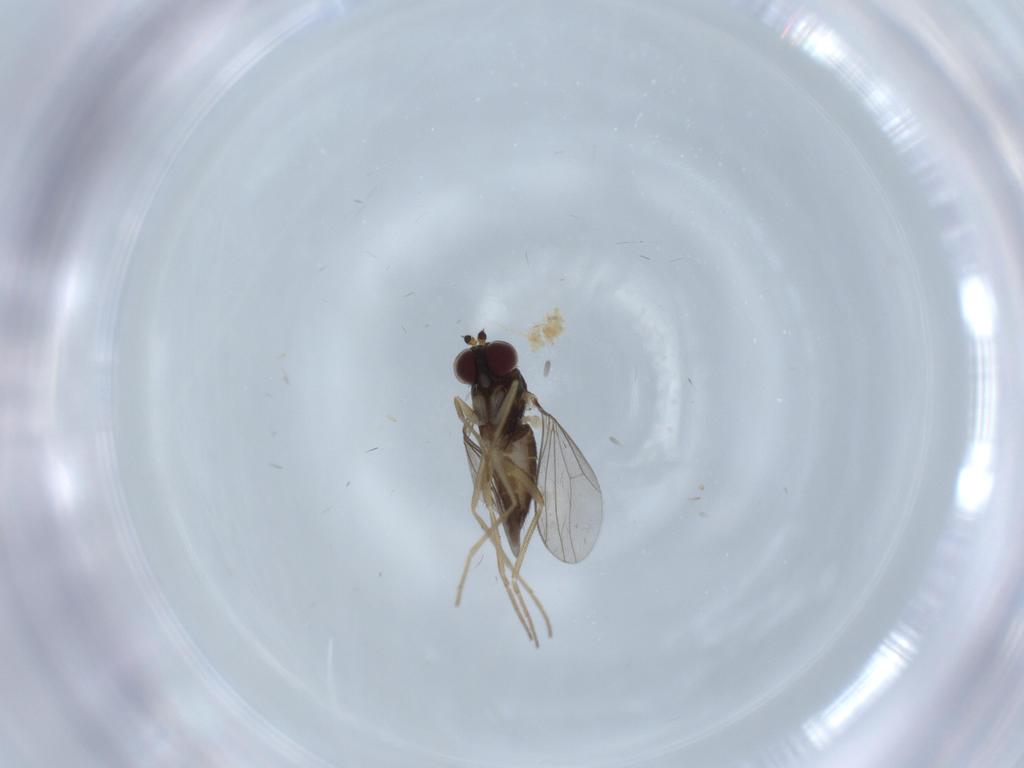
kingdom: Animalia
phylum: Arthropoda
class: Insecta
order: Diptera
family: Dolichopodidae
